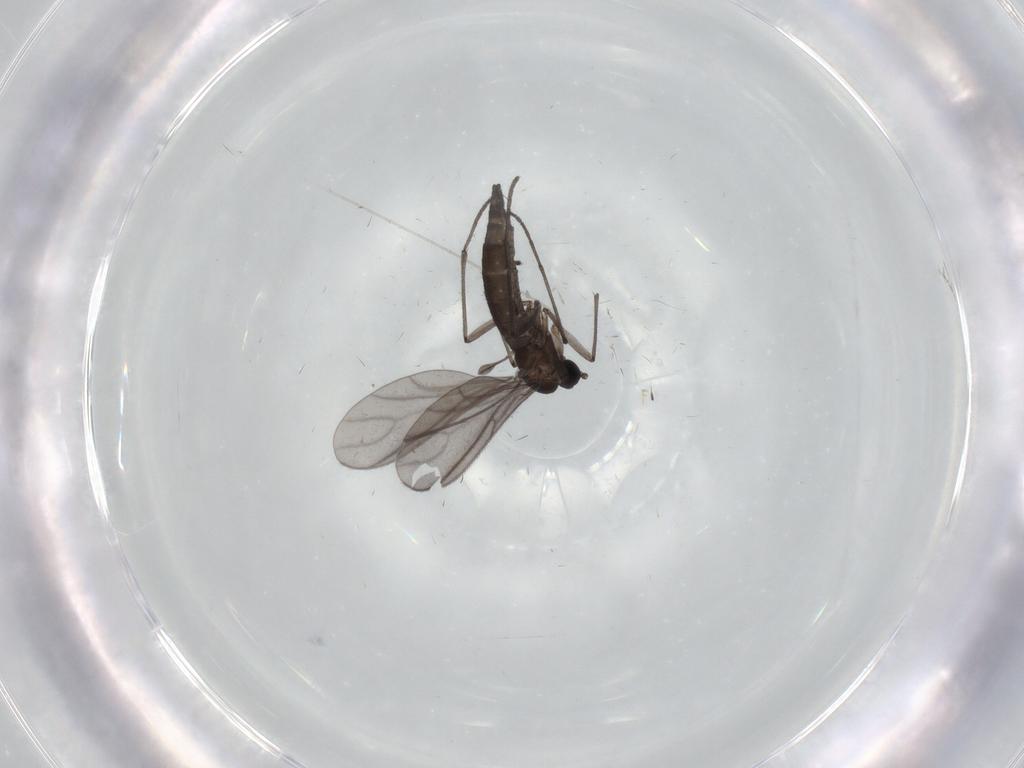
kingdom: Animalia
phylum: Arthropoda
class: Insecta
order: Diptera
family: Sciaridae
